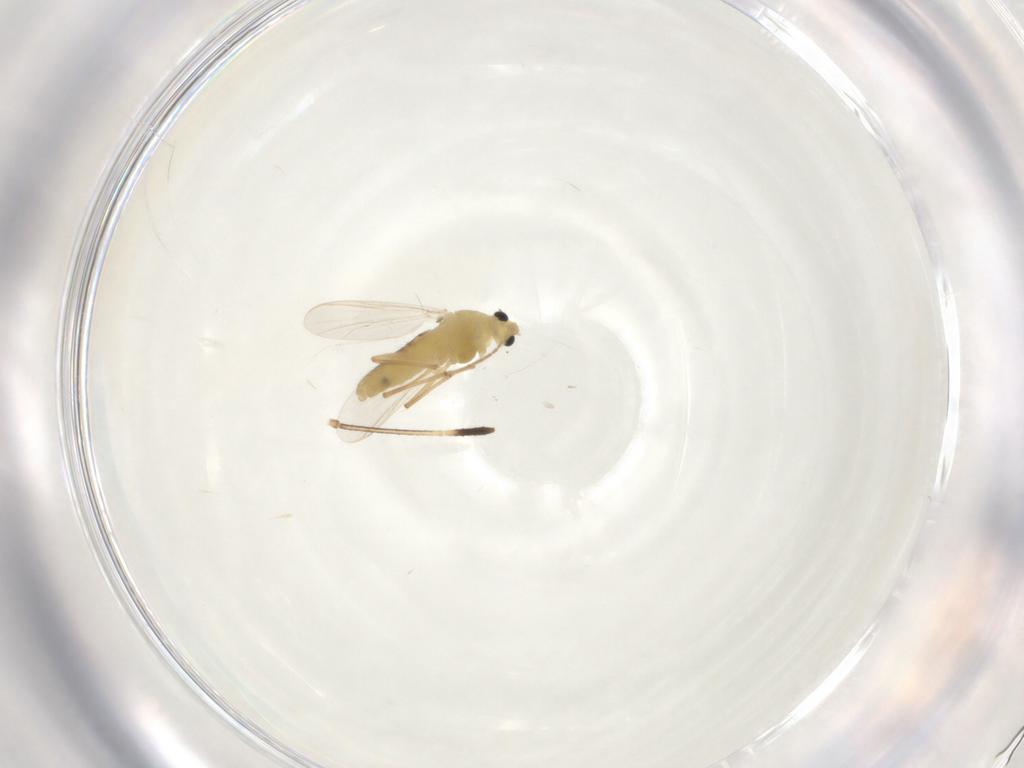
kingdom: Animalia
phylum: Arthropoda
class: Insecta
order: Diptera
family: Chironomidae
